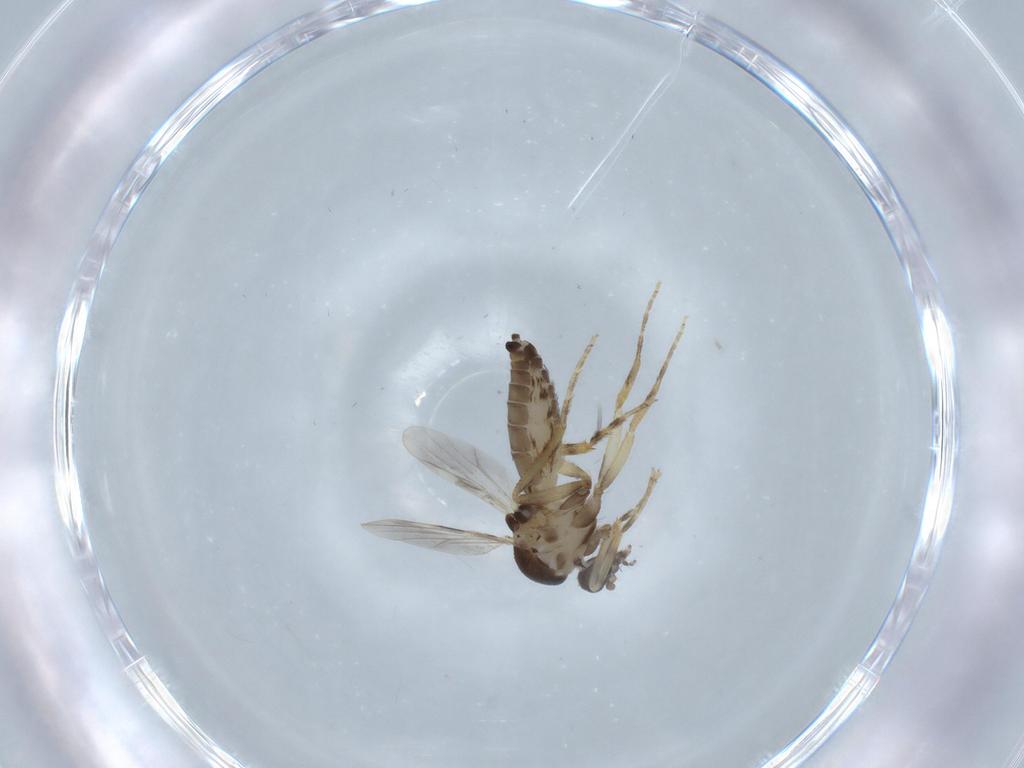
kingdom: Animalia
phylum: Arthropoda
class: Insecta
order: Diptera
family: Ceratopogonidae
